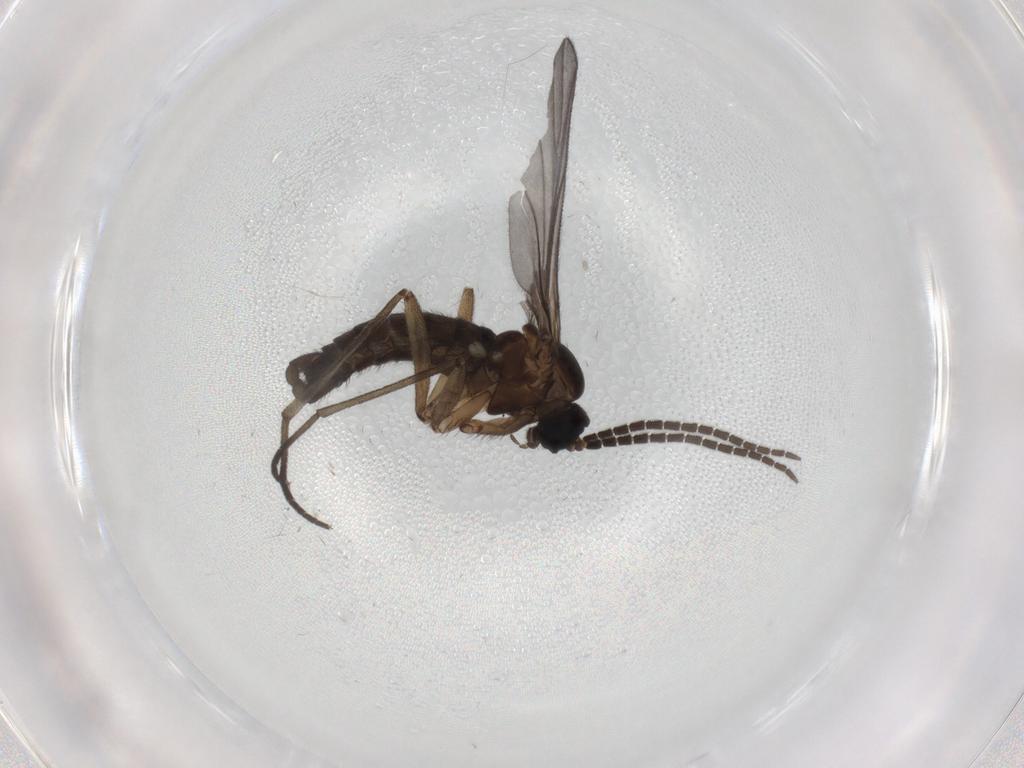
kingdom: Animalia
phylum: Arthropoda
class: Insecta
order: Diptera
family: Sciaridae
